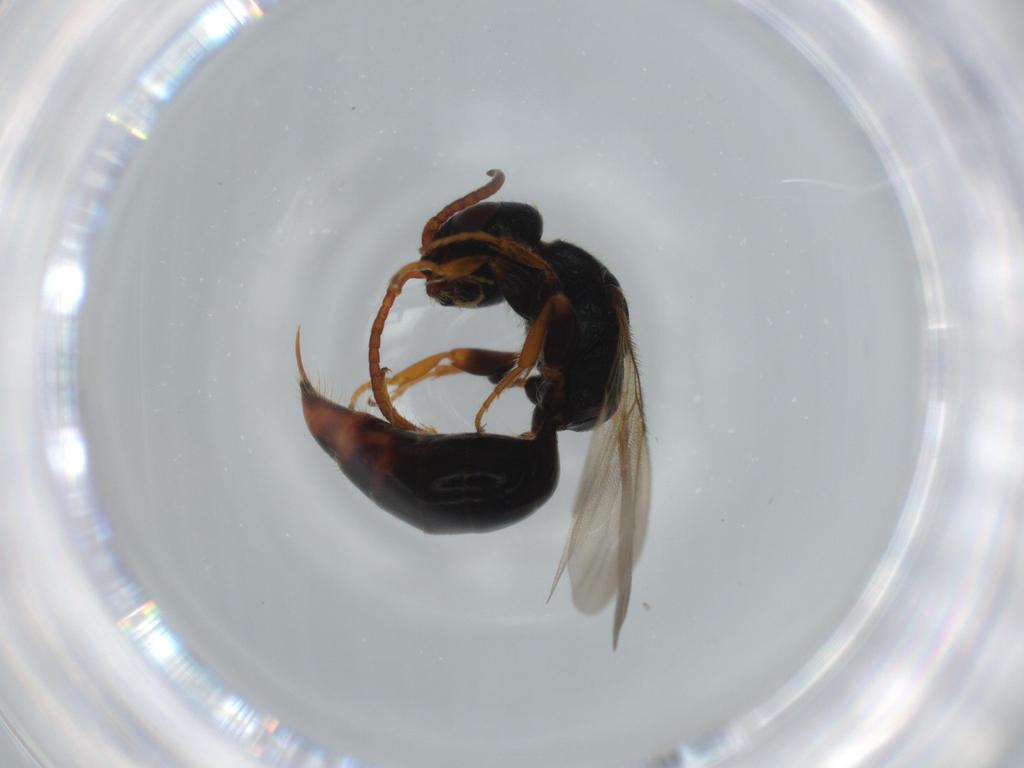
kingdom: Animalia
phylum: Arthropoda
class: Insecta
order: Hymenoptera
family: Bethylidae
